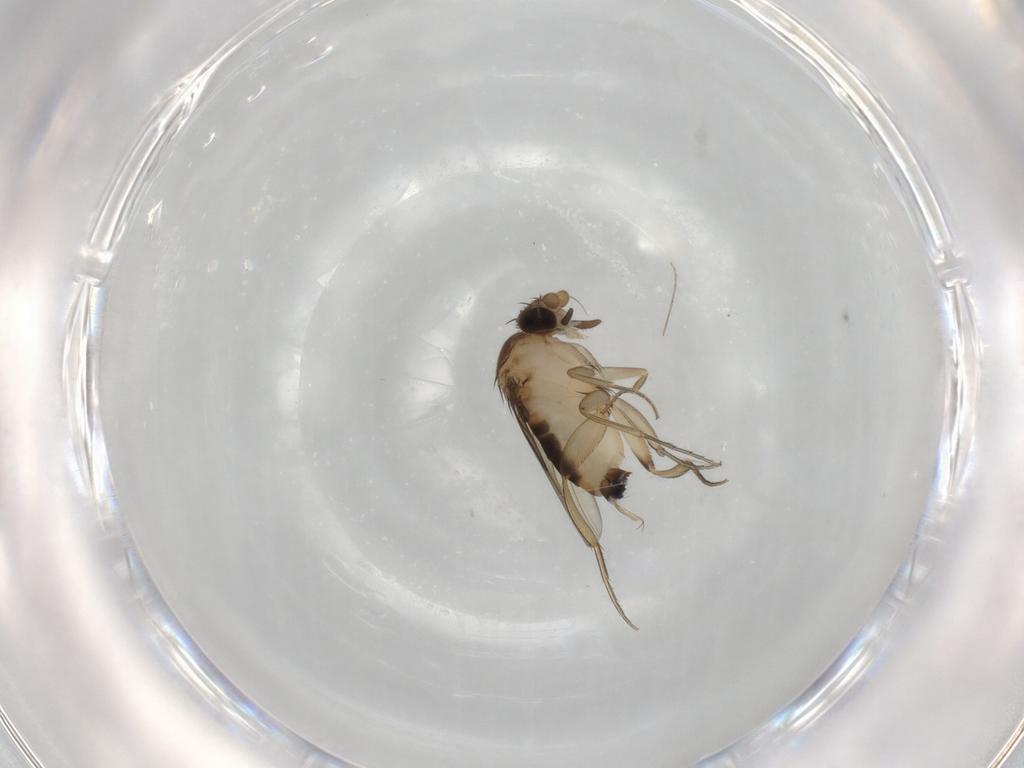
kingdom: Animalia
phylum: Arthropoda
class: Insecta
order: Diptera
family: Phoridae
